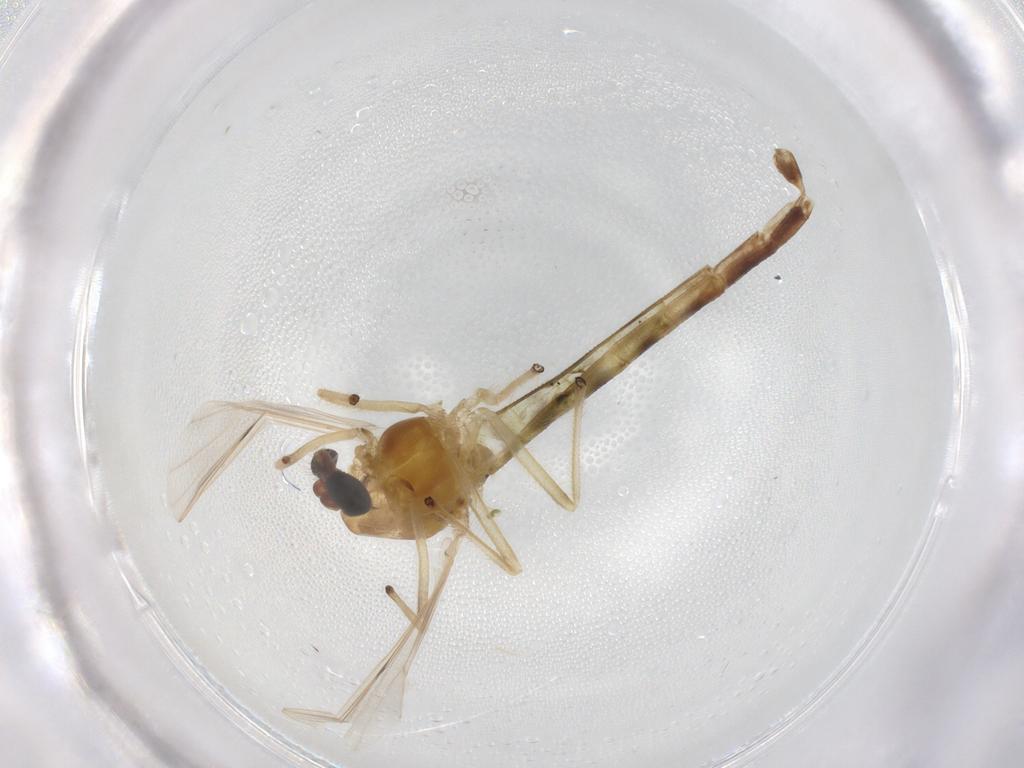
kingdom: Animalia
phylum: Arthropoda
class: Insecta
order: Diptera
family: Chironomidae
